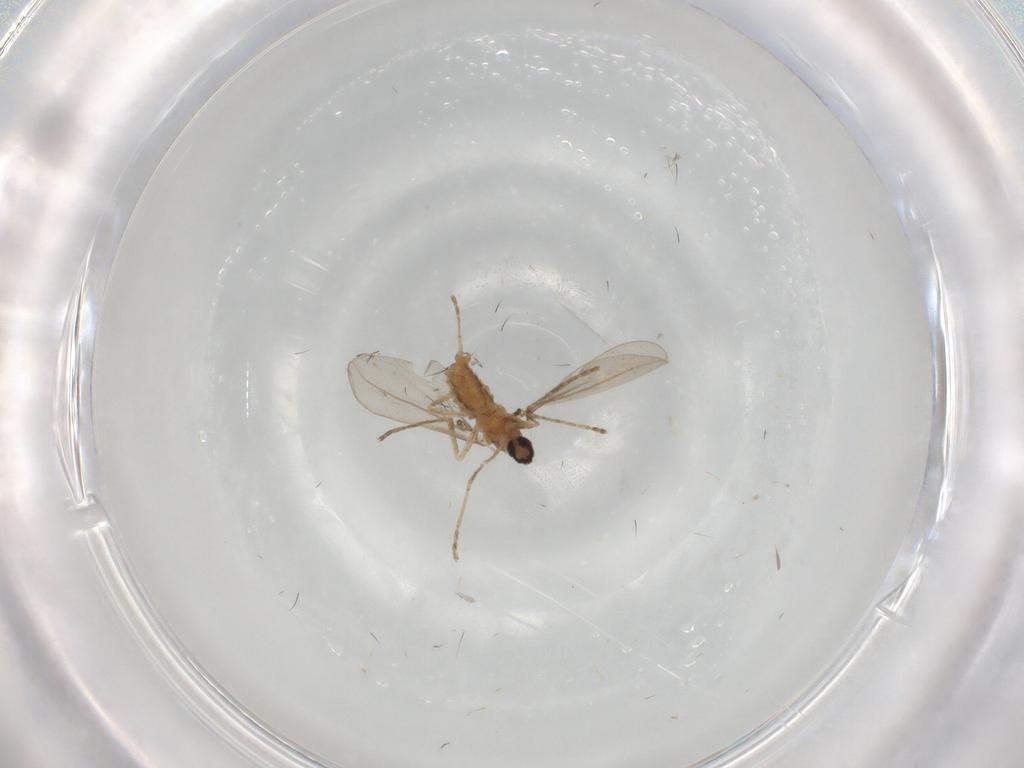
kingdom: Animalia
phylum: Arthropoda
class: Insecta
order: Diptera
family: Cecidomyiidae
